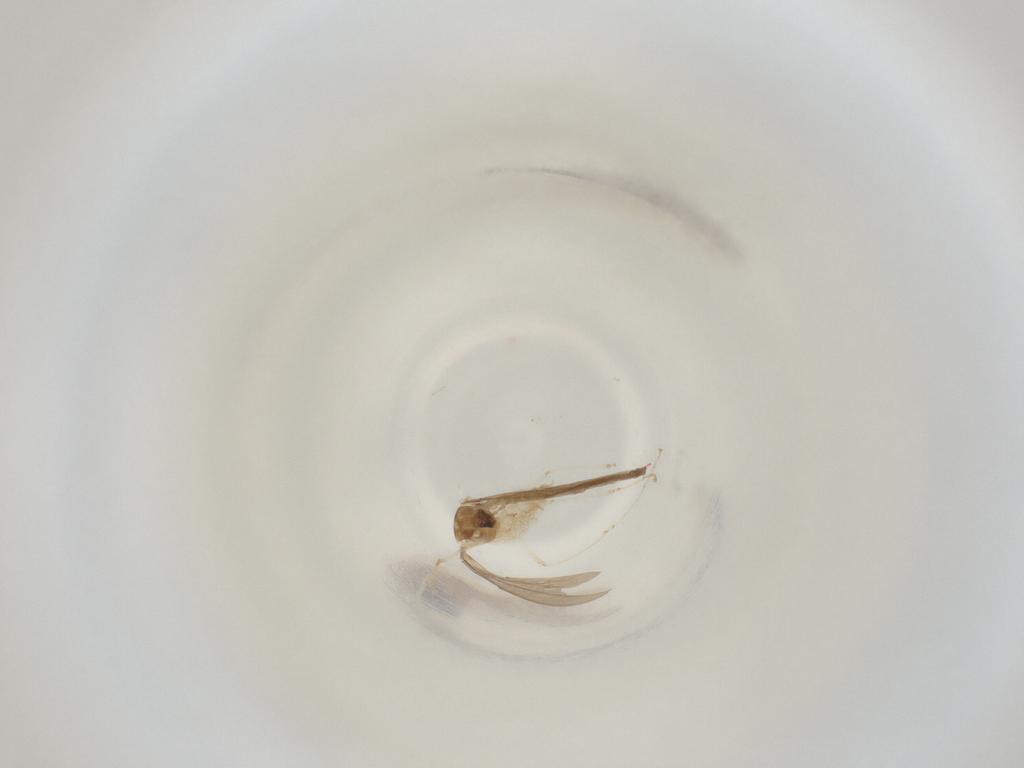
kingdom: Animalia
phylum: Arthropoda
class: Insecta
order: Diptera
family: Cecidomyiidae
